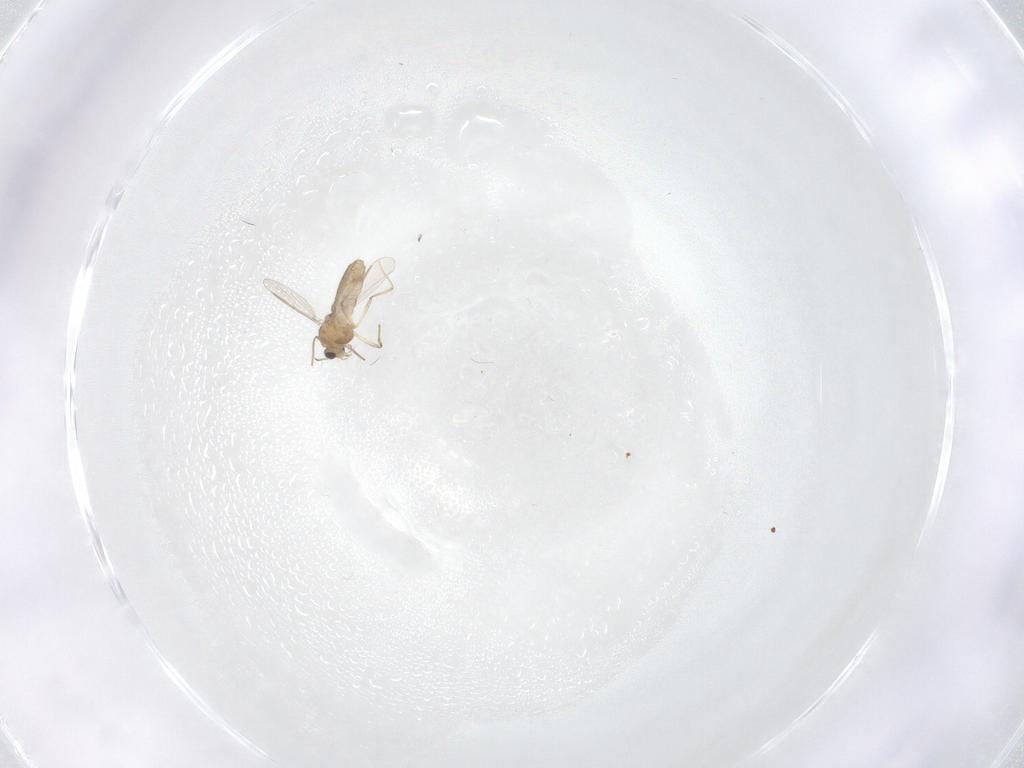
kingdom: Animalia
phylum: Arthropoda
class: Insecta
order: Diptera
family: Chironomidae
